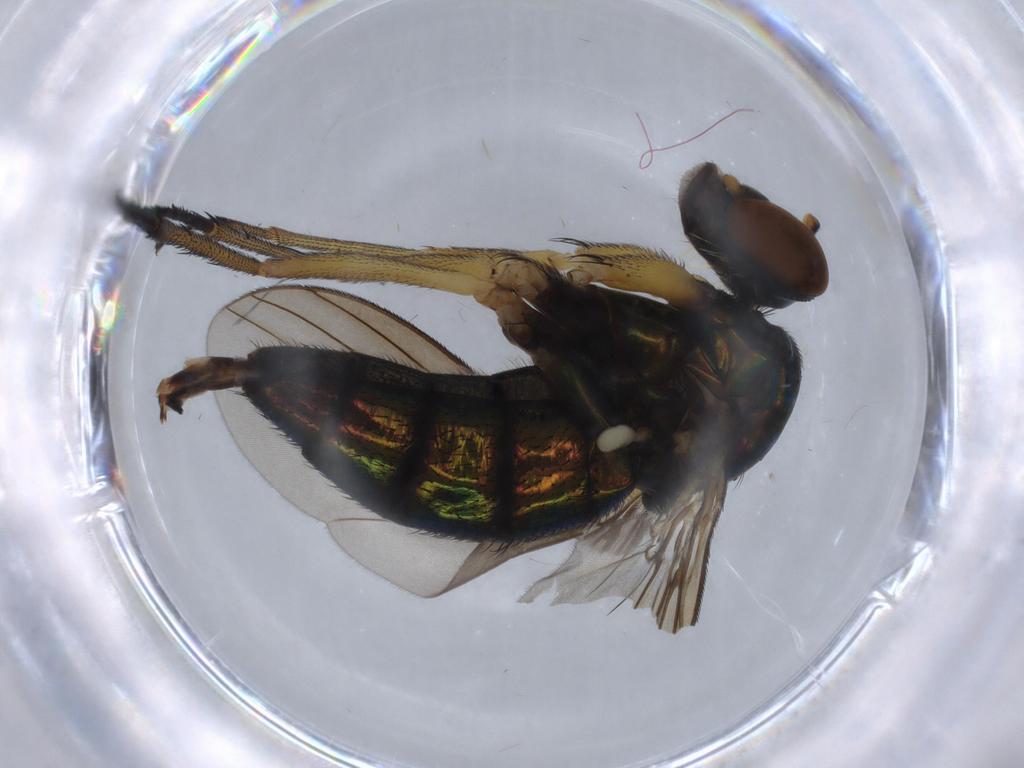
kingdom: Animalia
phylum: Arthropoda
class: Insecta
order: Diptera
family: Dolichopodidae
